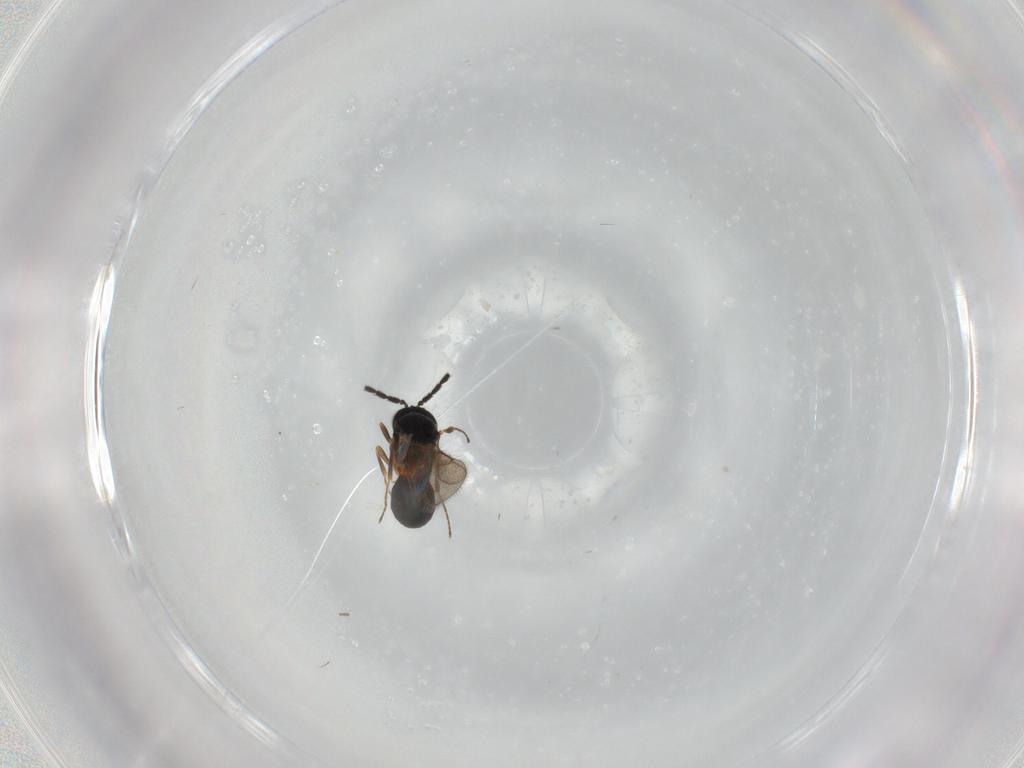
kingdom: Animalia
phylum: Arthropoda
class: Insecta
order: Hymenoptera
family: Scelionidae
